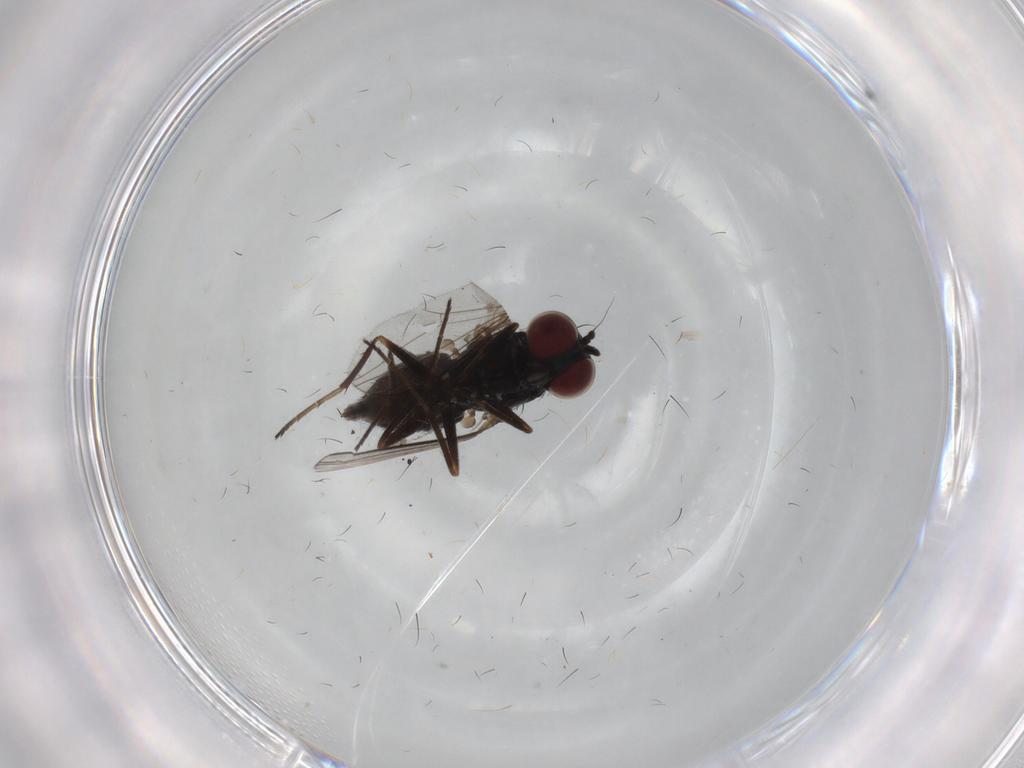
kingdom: Animalia
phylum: Arthropoda
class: Insecta
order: Diptera
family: Dolichopodidae
